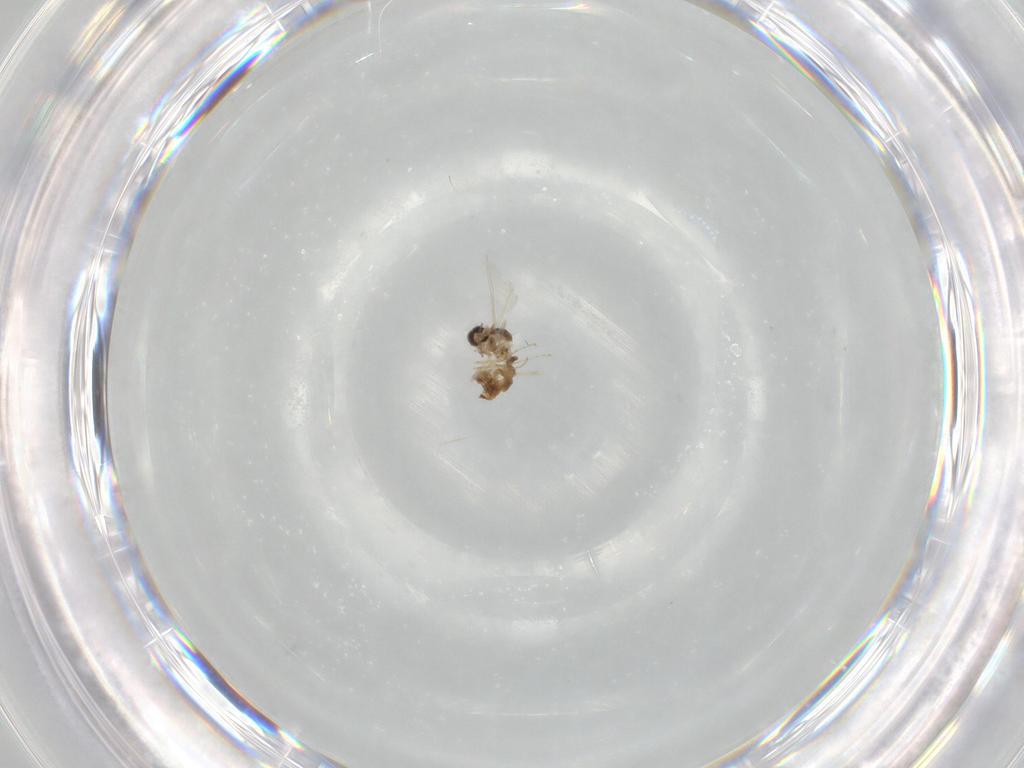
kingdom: Animalia
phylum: Arthropoda
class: Insecta
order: Diptera
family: Cecidomyiidae
